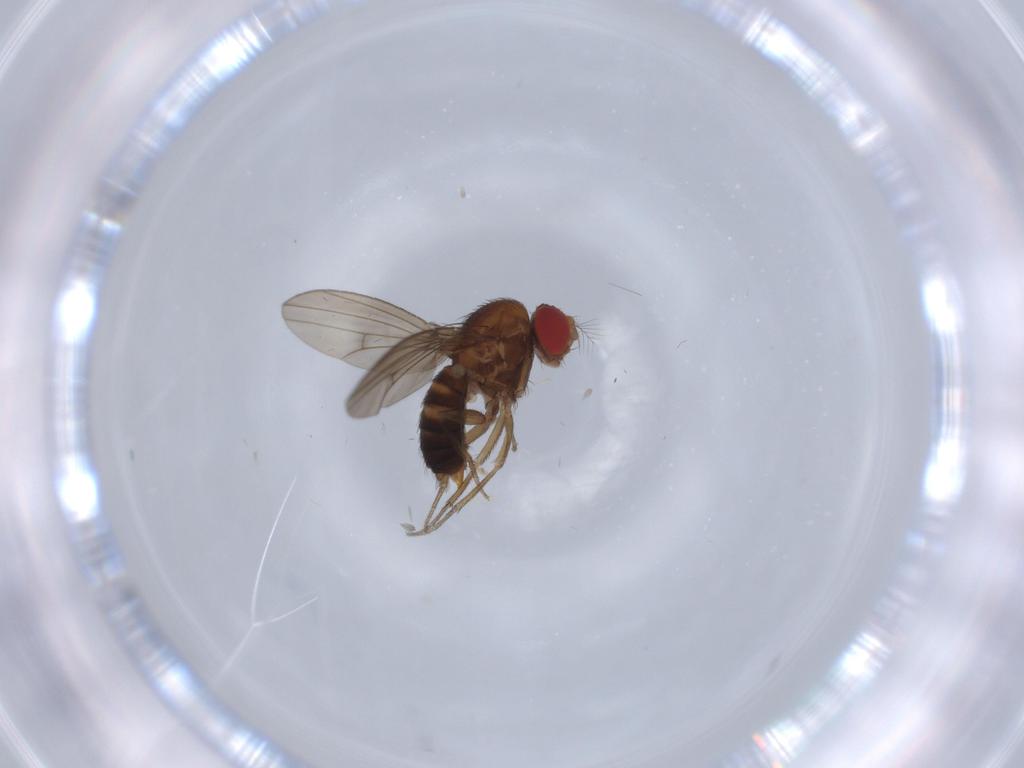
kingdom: Animalia
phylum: Arthropoda
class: Insecta
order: Diptera
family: Drosophilidae
